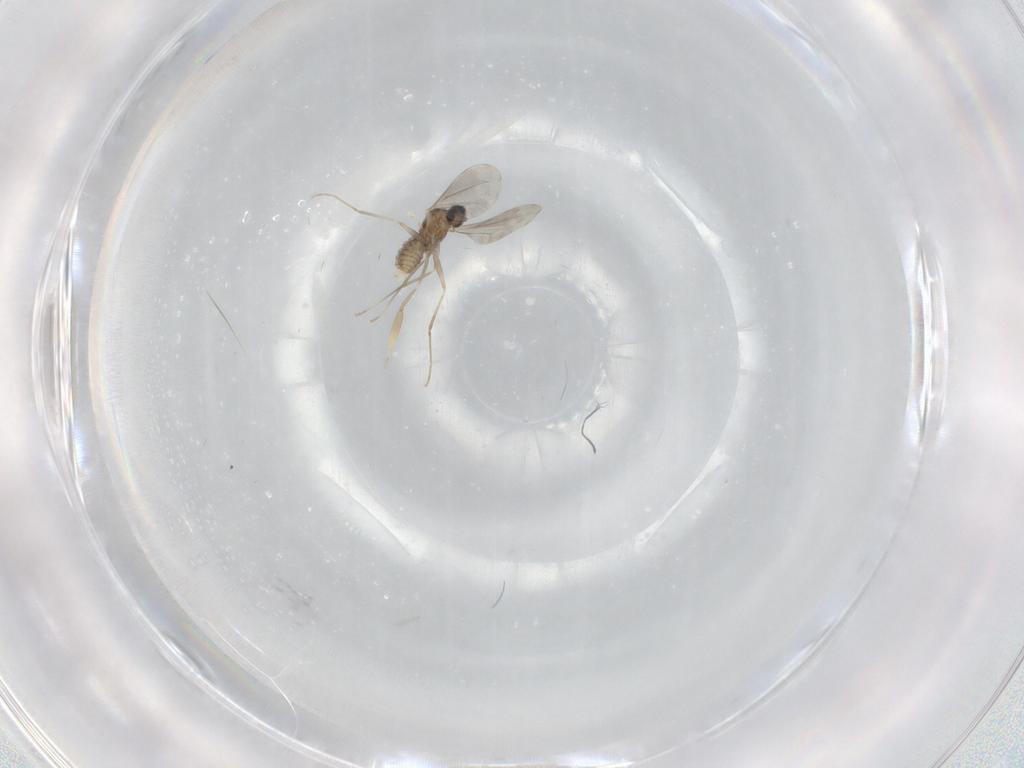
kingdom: Animalia
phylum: Arthropoda
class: Insecta
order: Diptera
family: Cecidomyiidae
